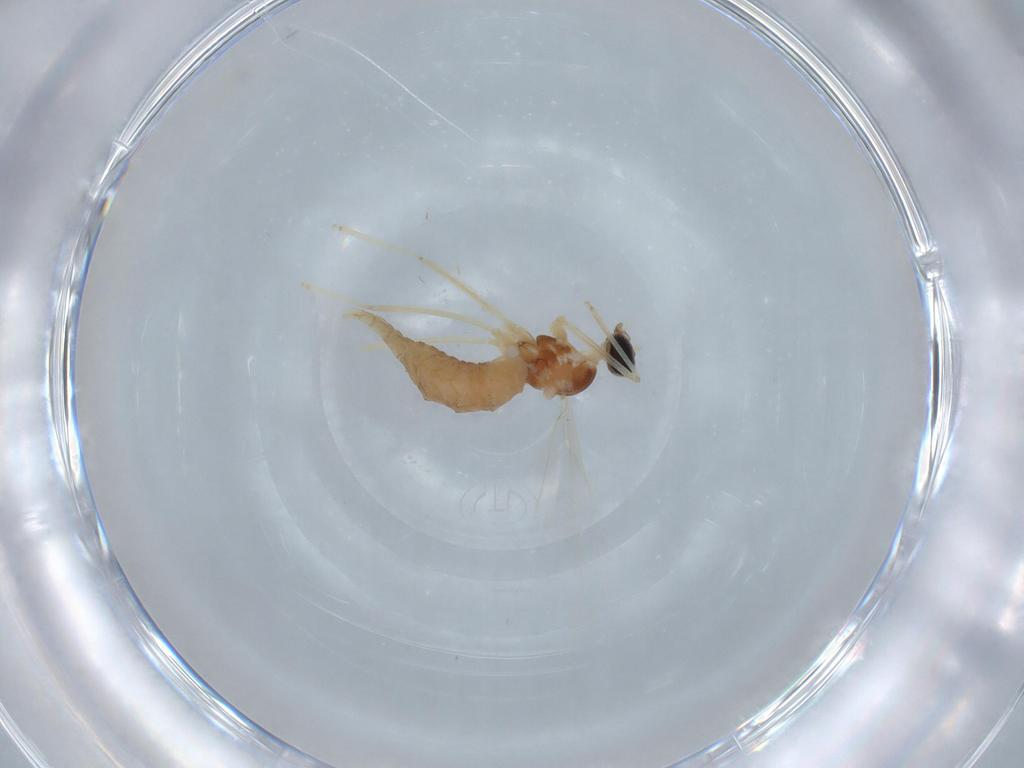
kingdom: Animalia
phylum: Arthropoda
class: Insecta
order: Diptera
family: Cecidomyiidae
